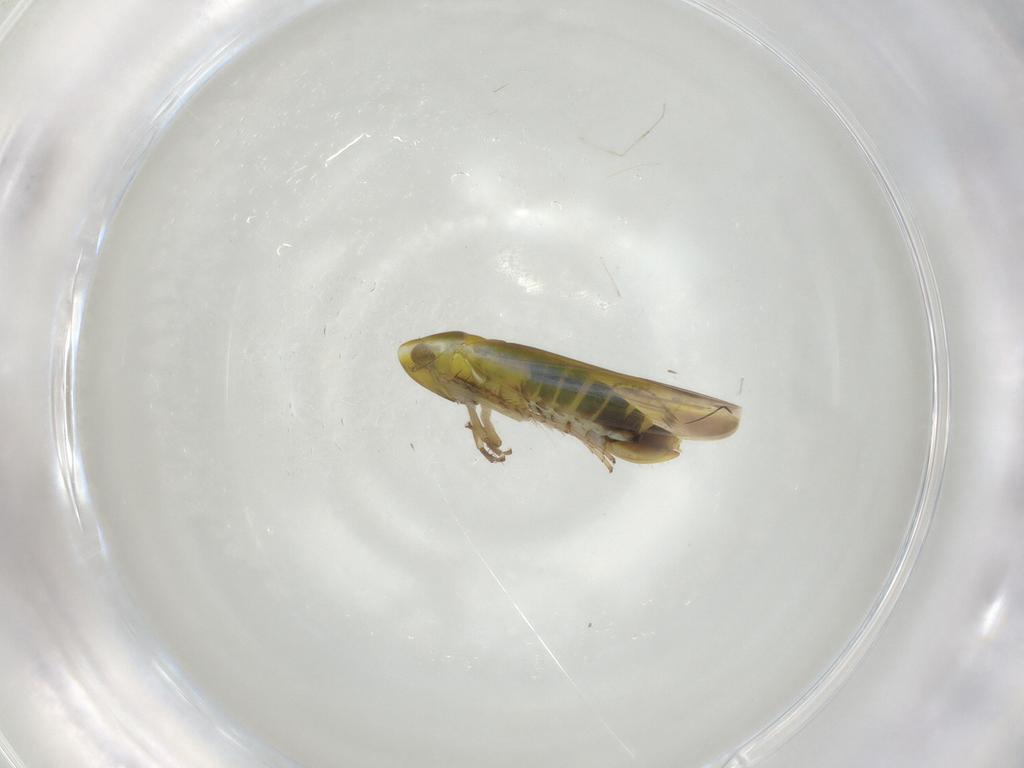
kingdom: Animalia
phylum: Arthropoda
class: Insecta
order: Hemiptera
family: Cicadellidae
